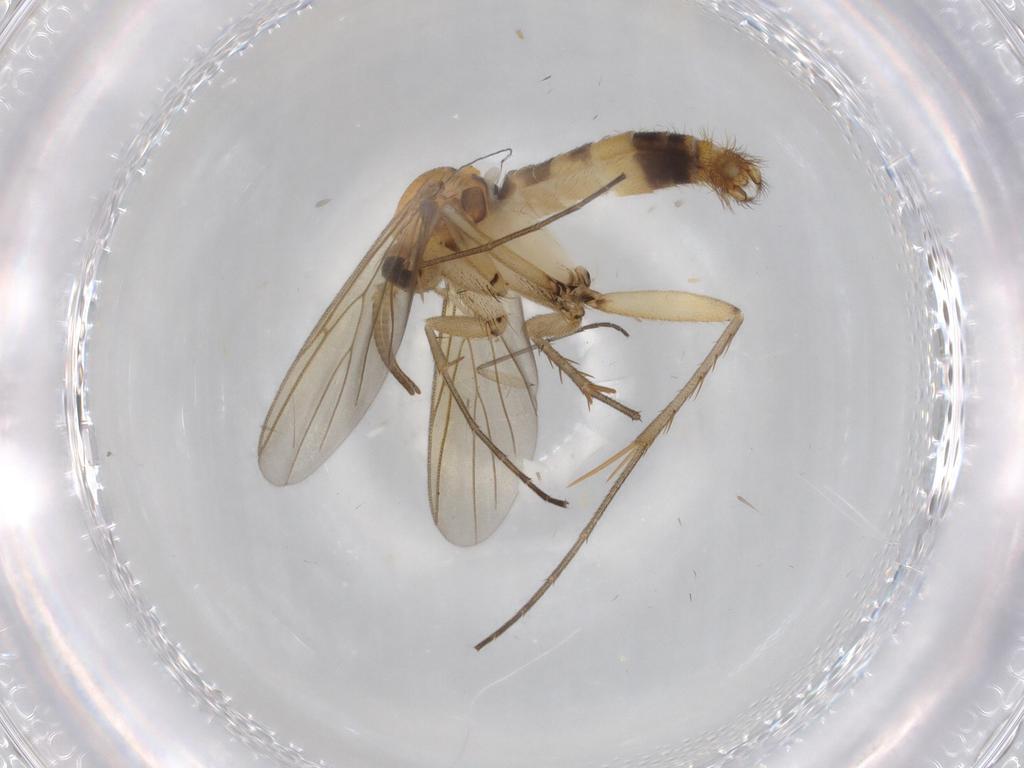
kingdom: Animalia
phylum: Arthropoda
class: Insecta
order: Diptera
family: Mycetophilidae
